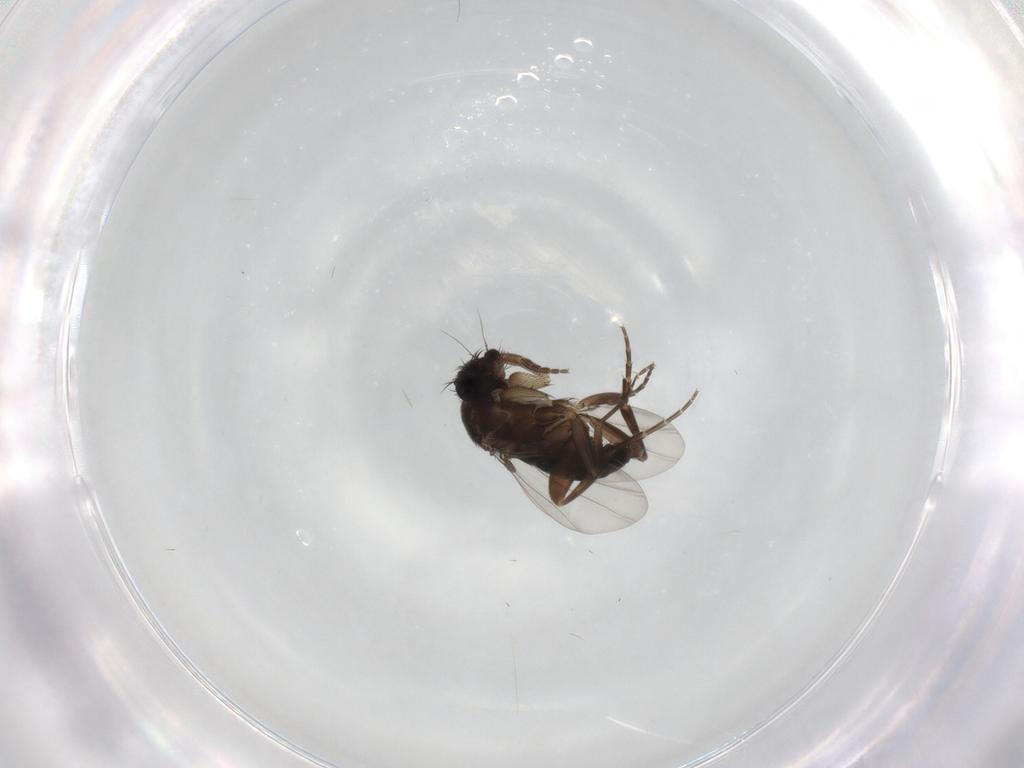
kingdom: Animalia
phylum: Arthropoda
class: Insecta
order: Diptera
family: Phoridae
